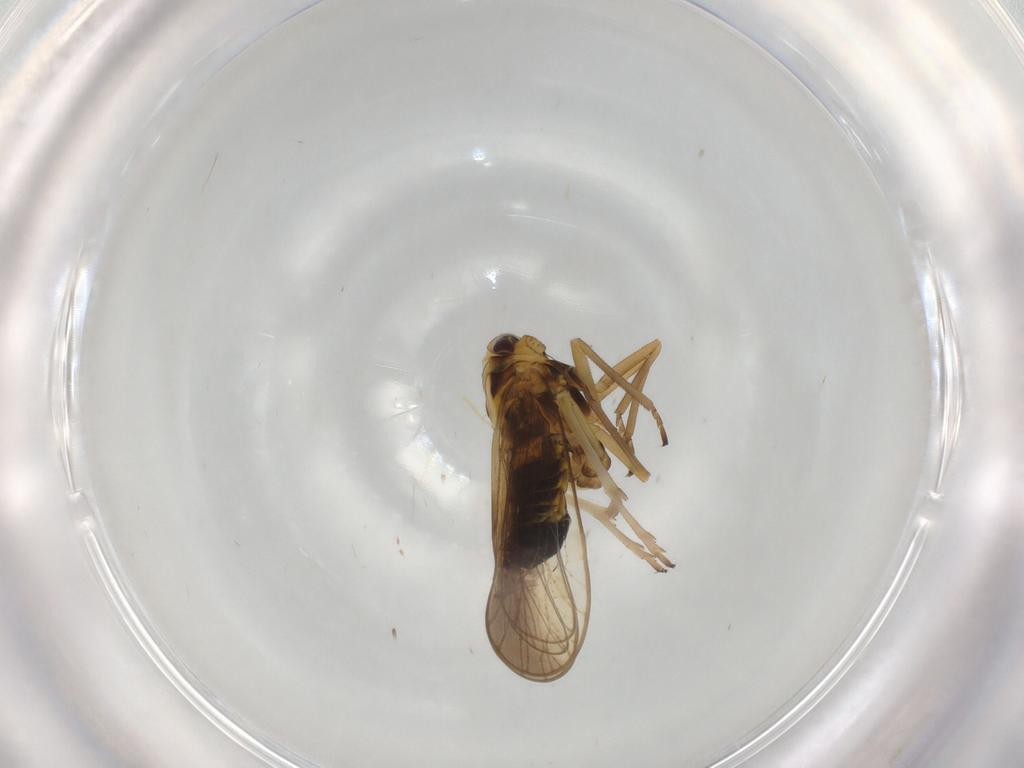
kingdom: Animalia
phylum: Arthropoda
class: Insecta
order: Hemiptera
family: Delphacidae
